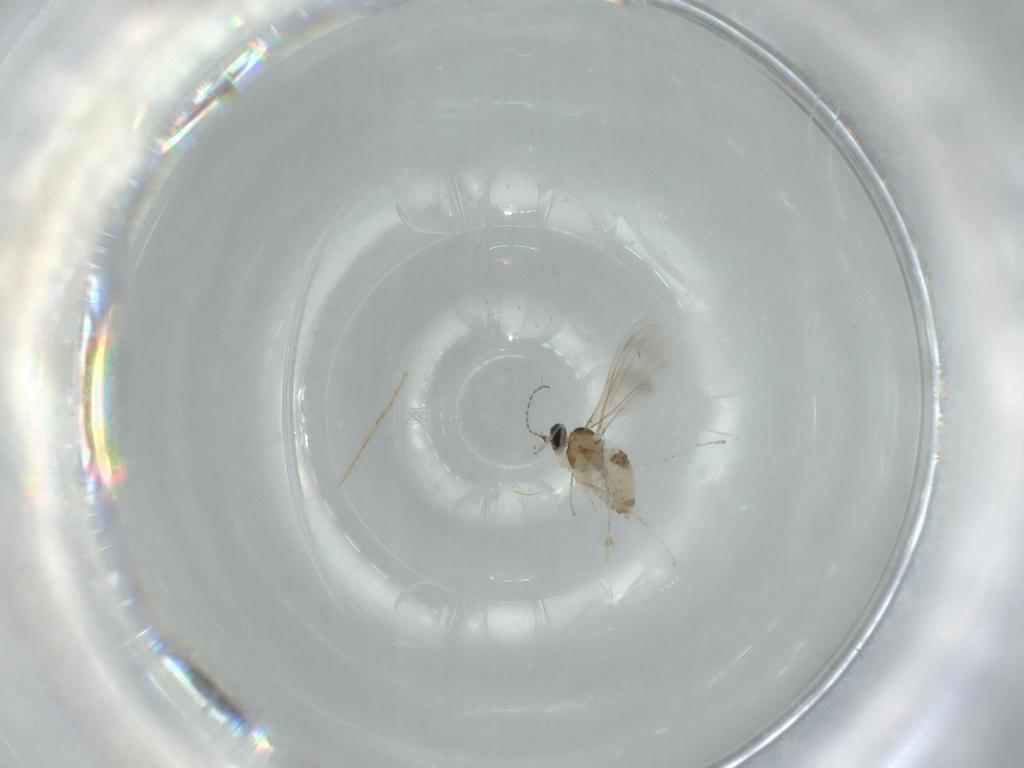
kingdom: Animalia
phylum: Arthropoda
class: Insecta
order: Diptera
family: Cecidomyiidae
